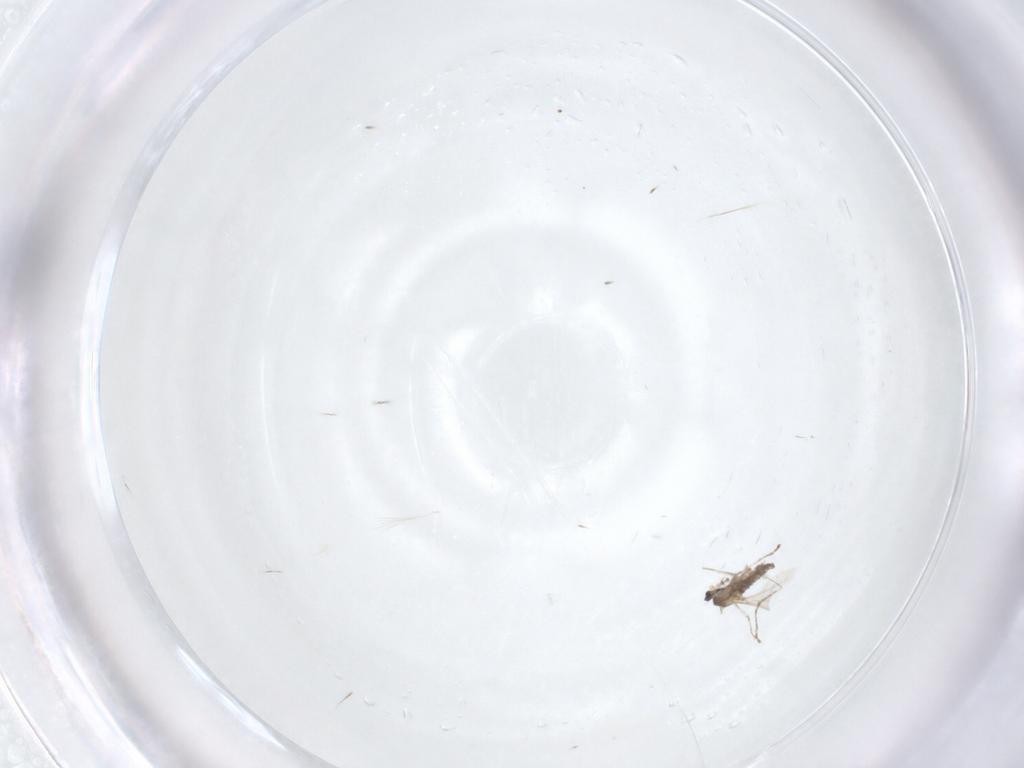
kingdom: Animalia
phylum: Arthropoda
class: Insecta
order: Diptera
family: Cecidomyiidae
